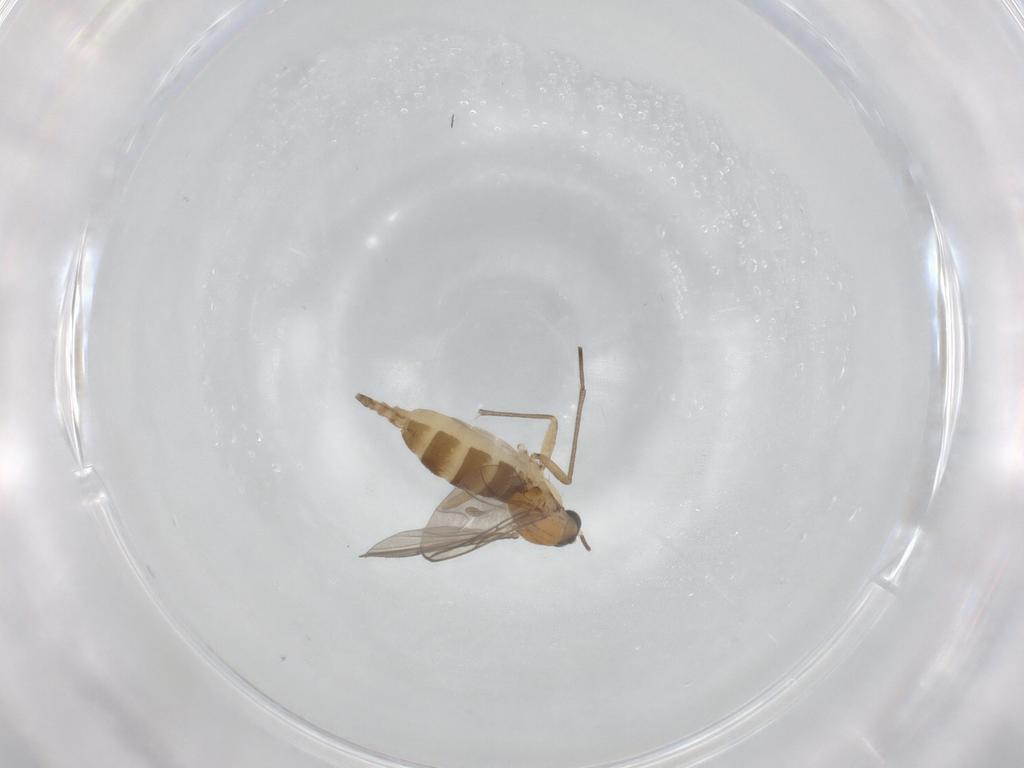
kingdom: Animalia
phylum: Arthropoda
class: Insecta
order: Diptera
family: Sciaridae
